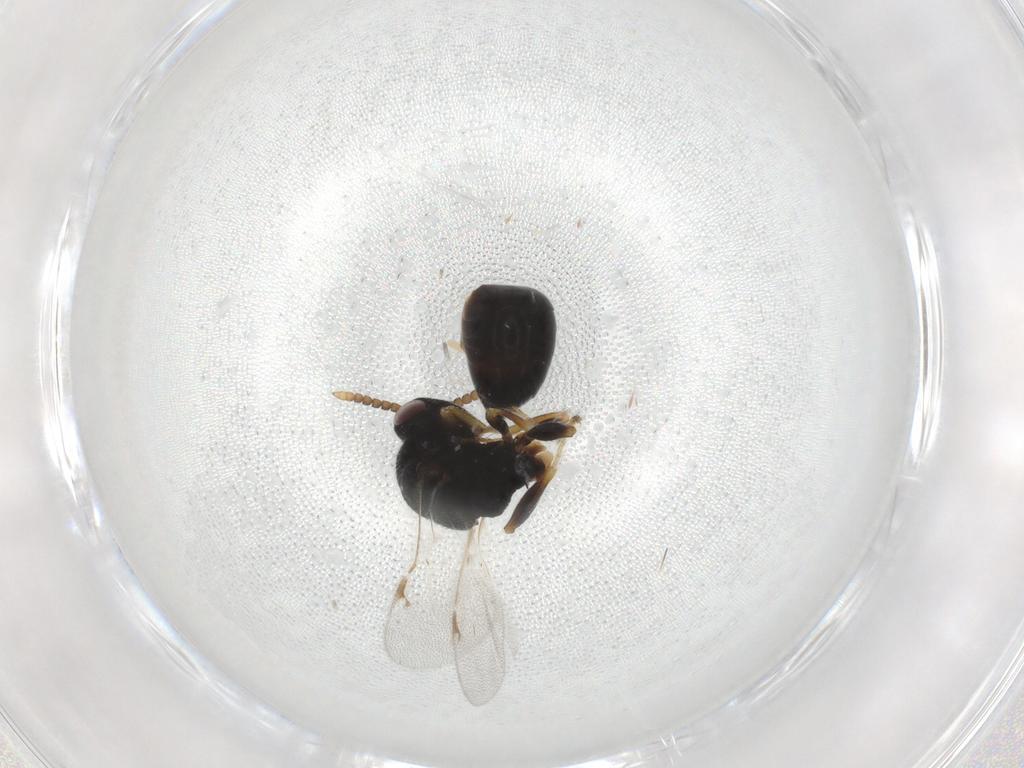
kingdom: Animalia
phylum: Arthropoda
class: Insecta
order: Hymenoptera
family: Eurytomidae
